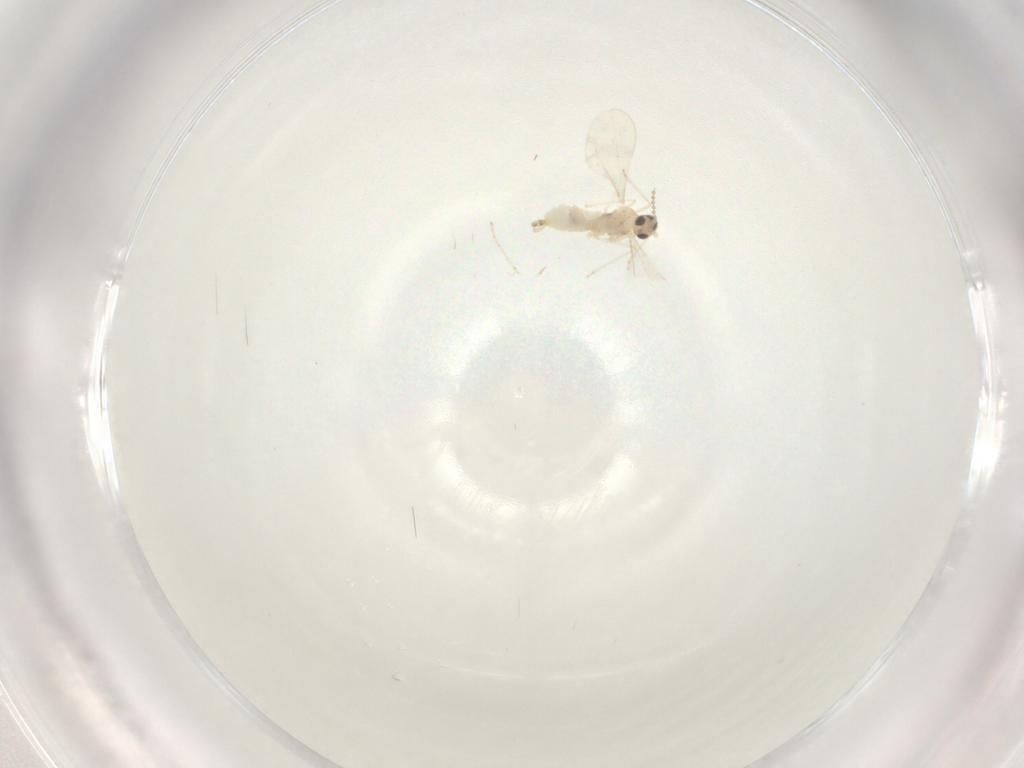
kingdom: Animalia
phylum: Arthropoda
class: Insecta
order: Diptera
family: Cecidomyiidae
